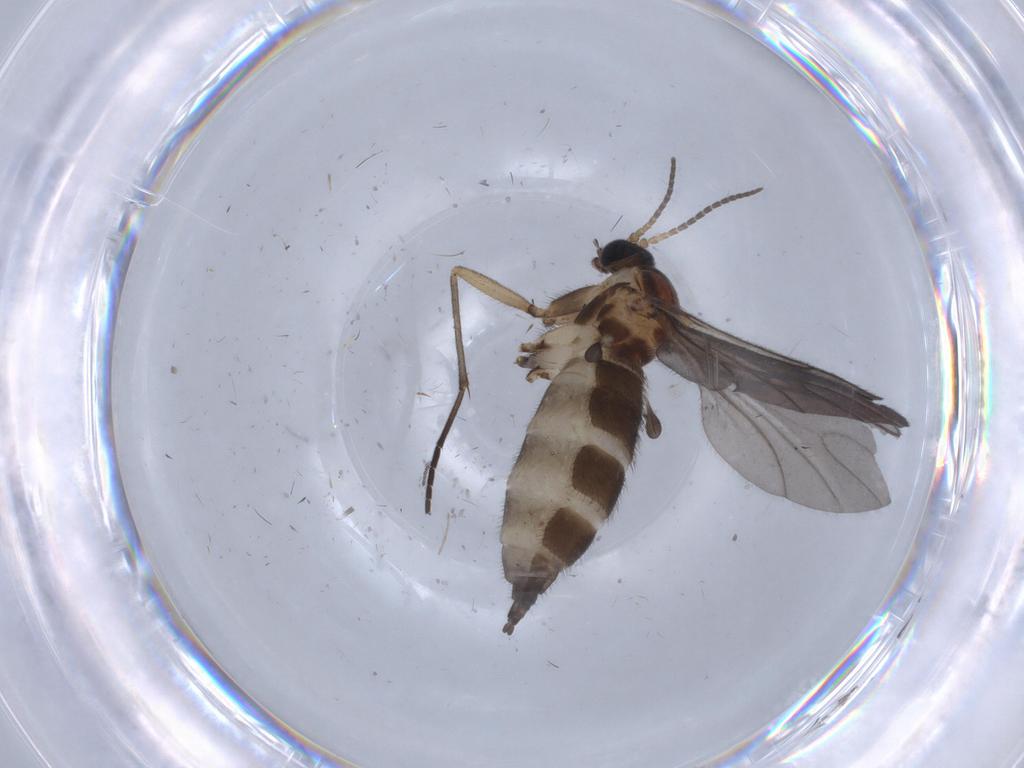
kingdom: Animalia
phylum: Arthropoda
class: Insecta
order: Diptera
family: Sciaridae
